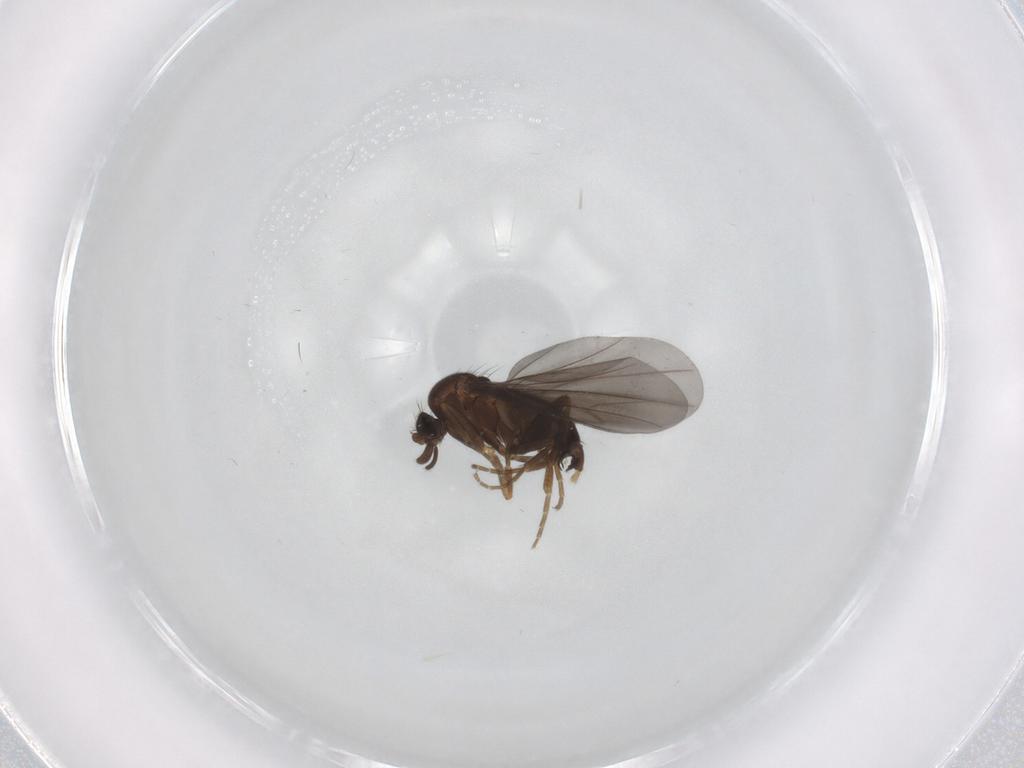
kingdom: Animalia
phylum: Arthropoda
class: Insecta
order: Diptera
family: Phoridae
